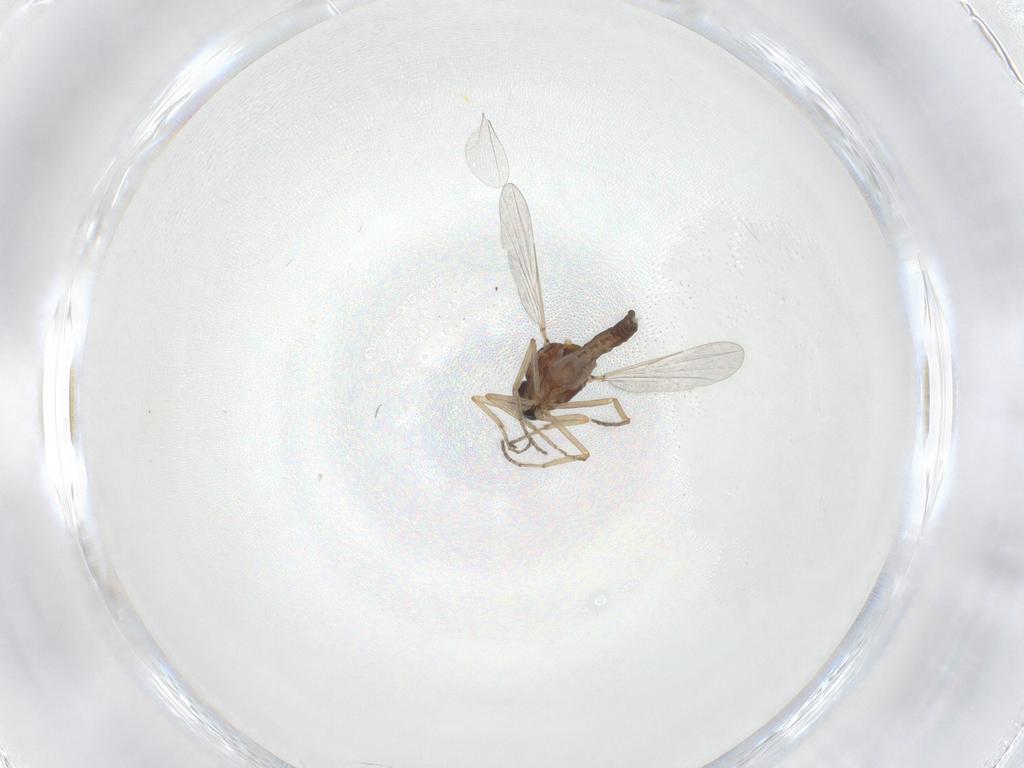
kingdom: Animalia
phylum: Arthropoda
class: Insecta
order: Diptera
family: Ceratopogonidae
